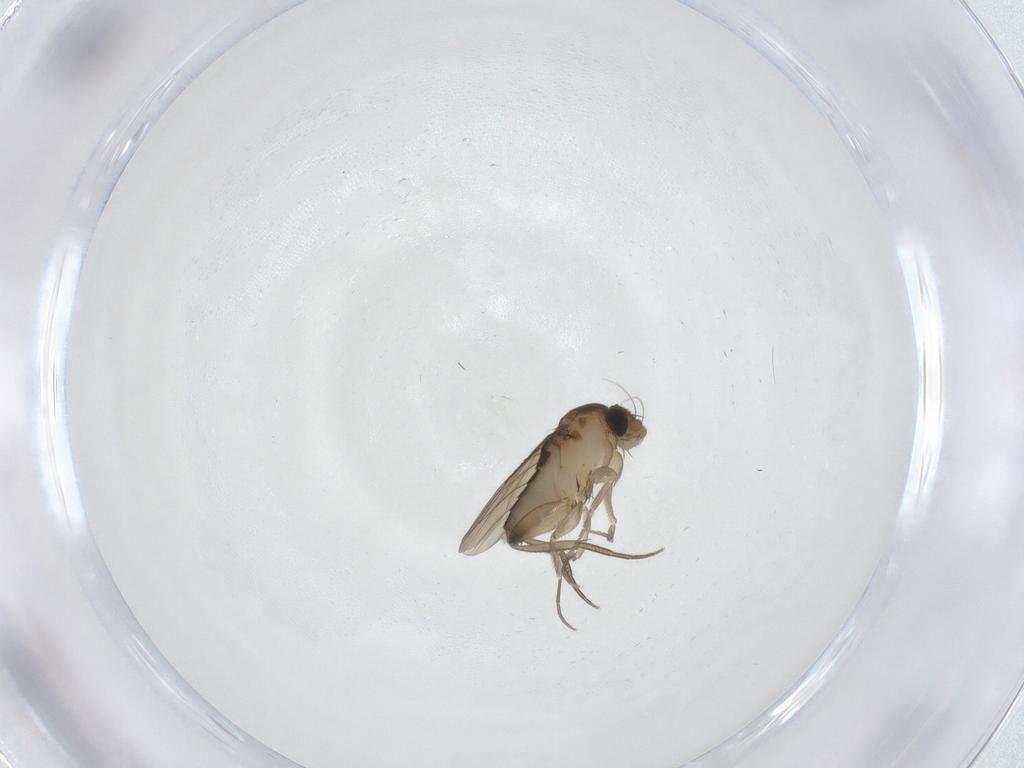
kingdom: Animalia
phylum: Arthropoda
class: Insecta
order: Diptera
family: Phoridae
